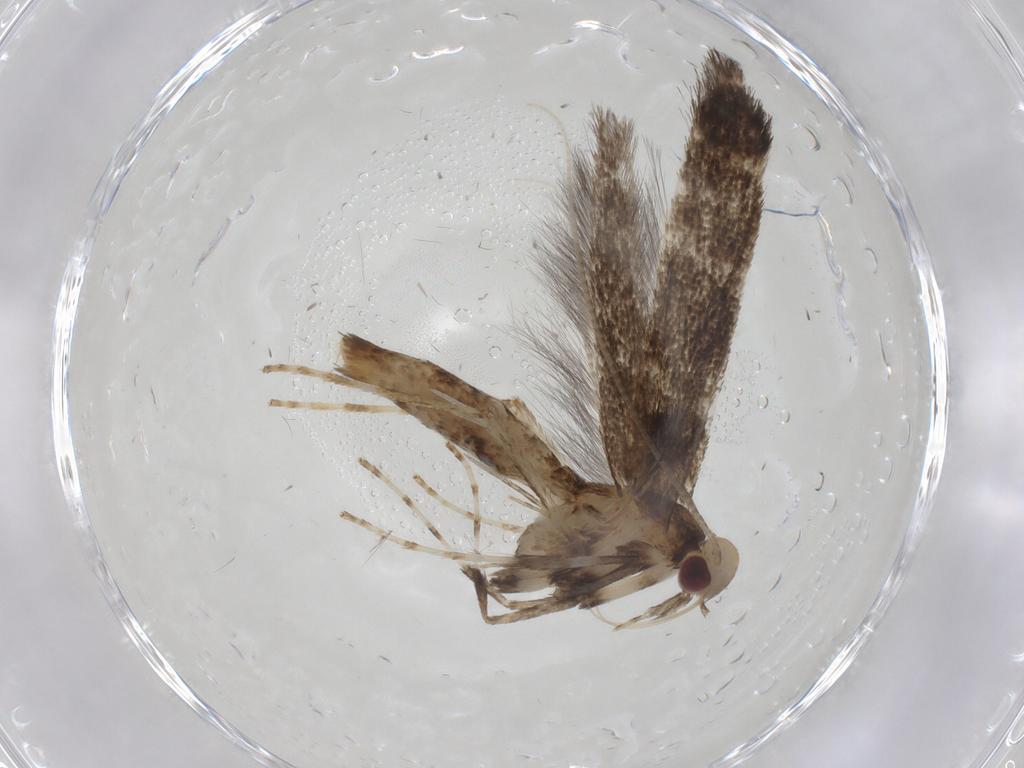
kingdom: Animalia
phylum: Arthropoda
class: Insecta
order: Lepidoptera
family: Gracillariidae
